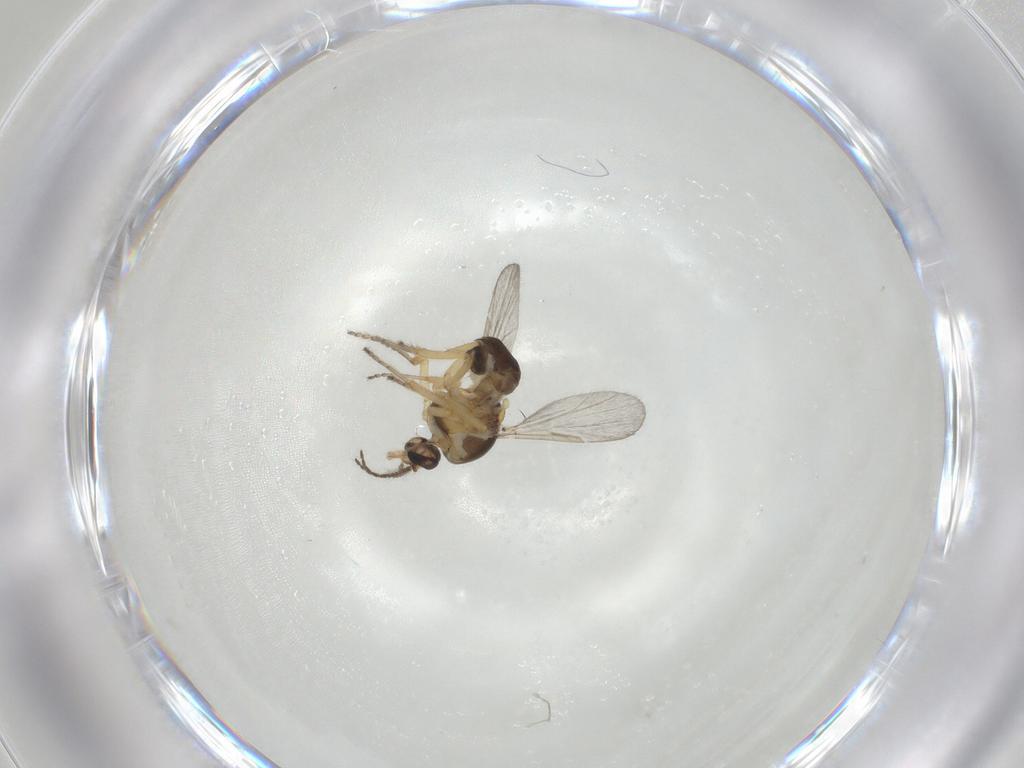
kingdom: Animalia
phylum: Arthropoda
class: Insecta
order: Diptera
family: Ceratopogonidae
